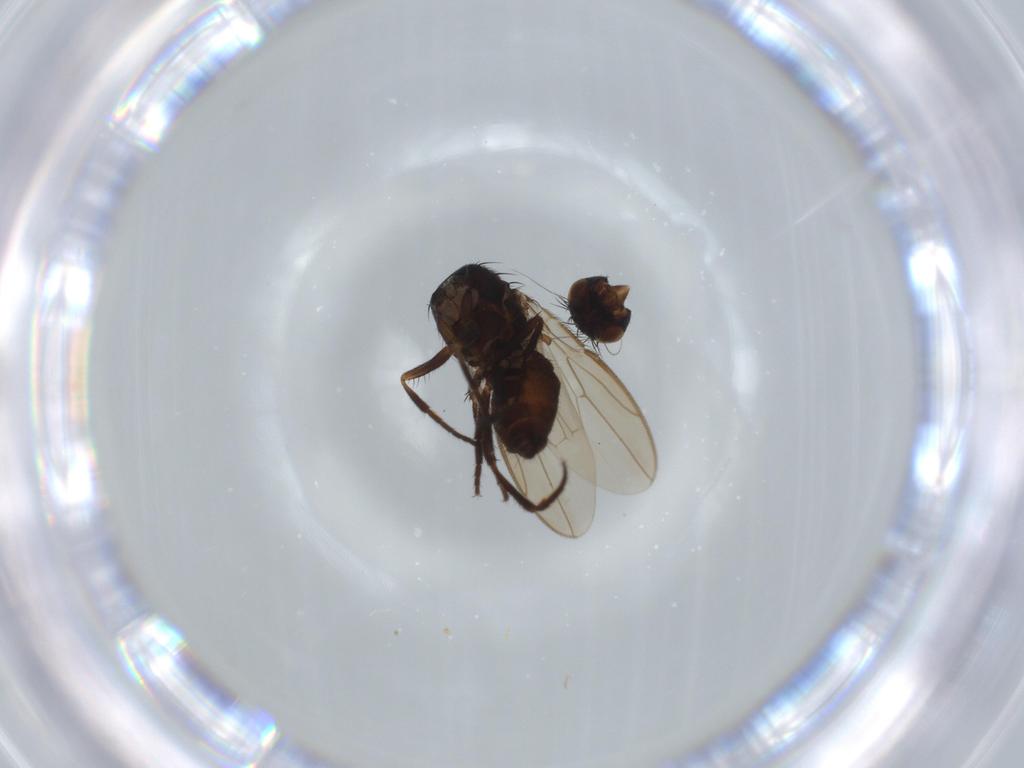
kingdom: Animalia
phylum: Arthropoda
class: Insecta
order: Diptera
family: Sphaeroceridae
